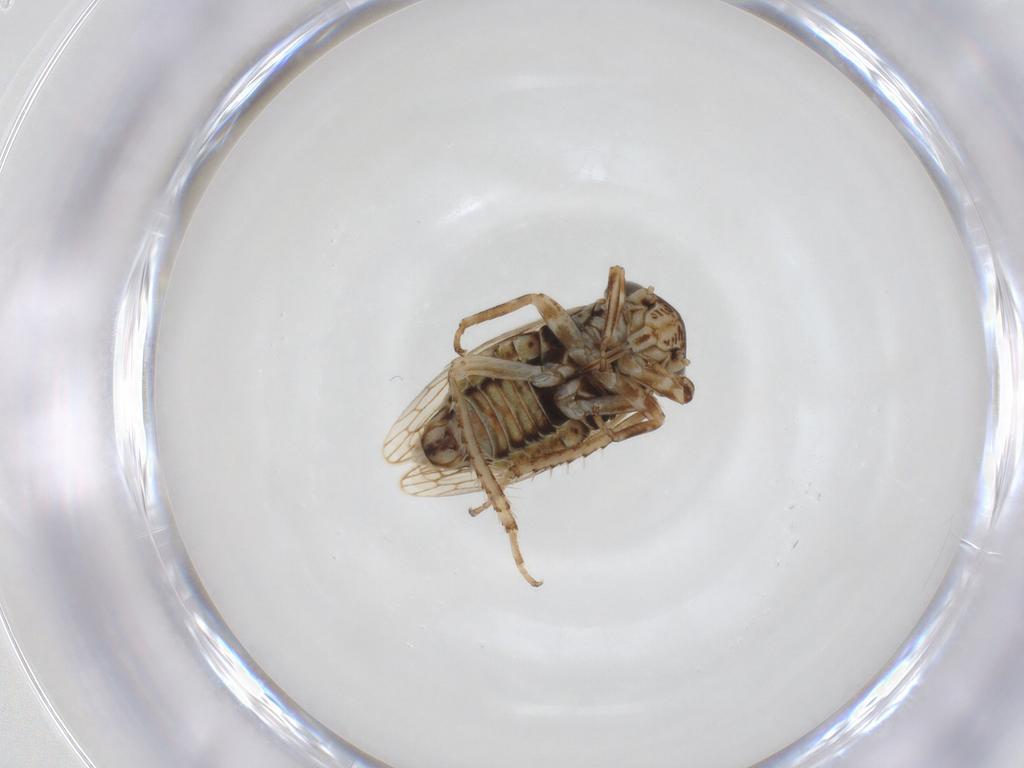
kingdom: Animalia
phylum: Arthropoda
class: Insecta
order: Hemiptera
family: Cicadellidae
